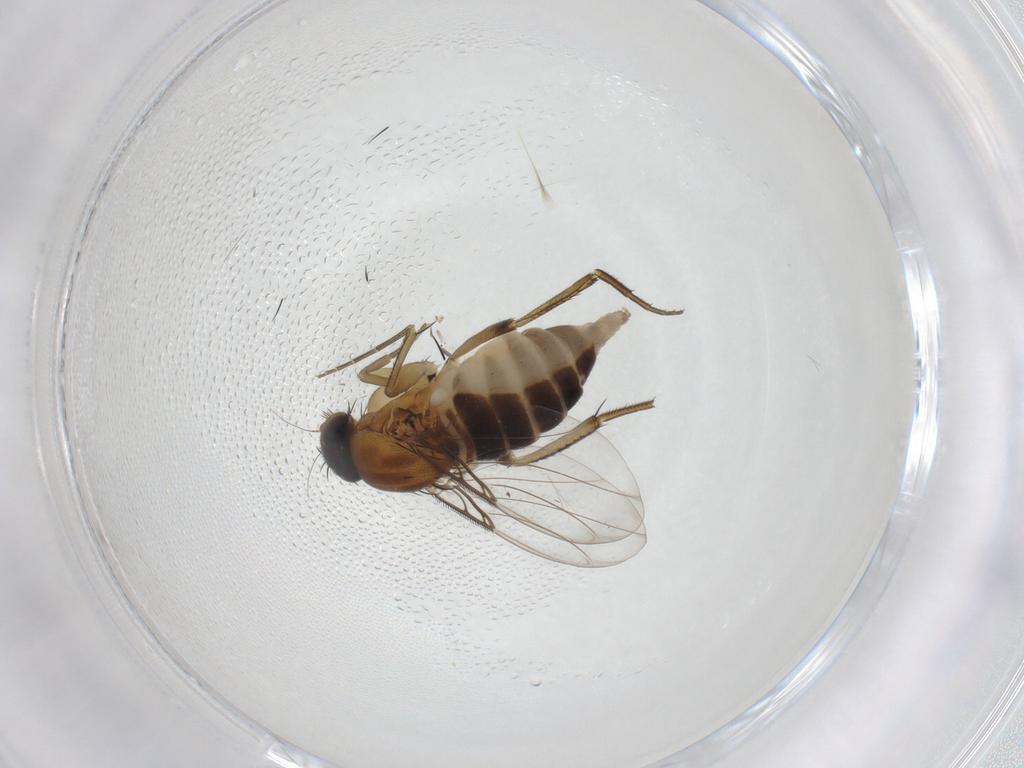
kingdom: Animalia
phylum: Arthropoda
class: Insecta
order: Diptera
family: Phoridae
